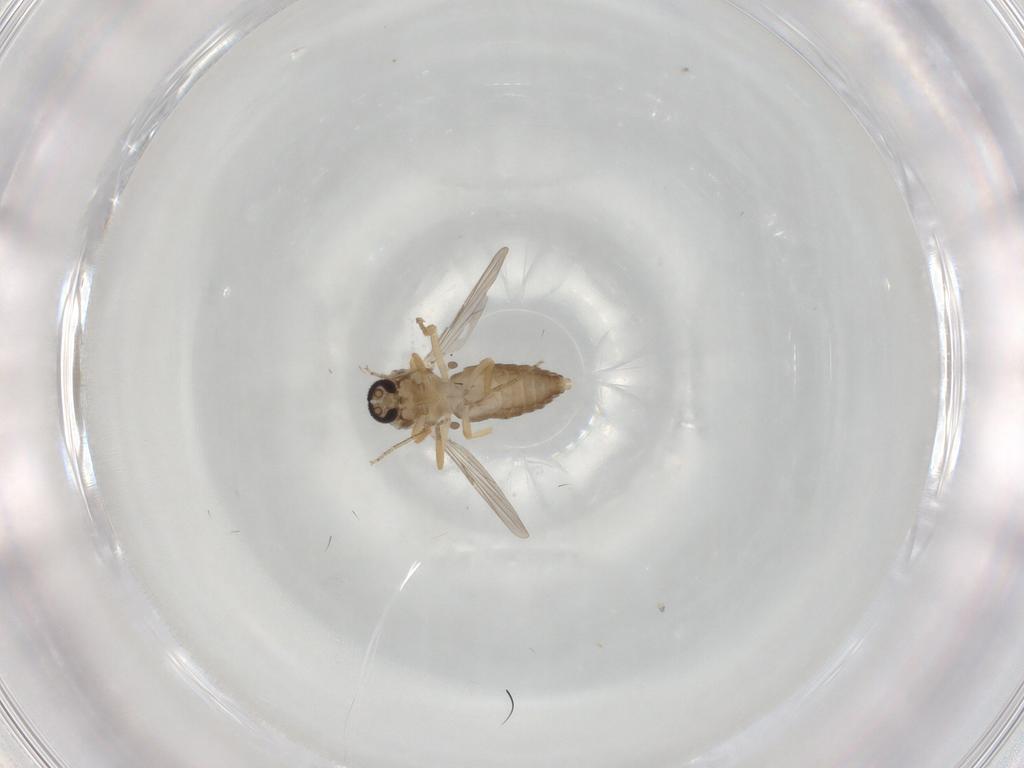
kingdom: Animalia
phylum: Arthropoda
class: Insecta
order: Diptera
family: Ceratopogonidae
